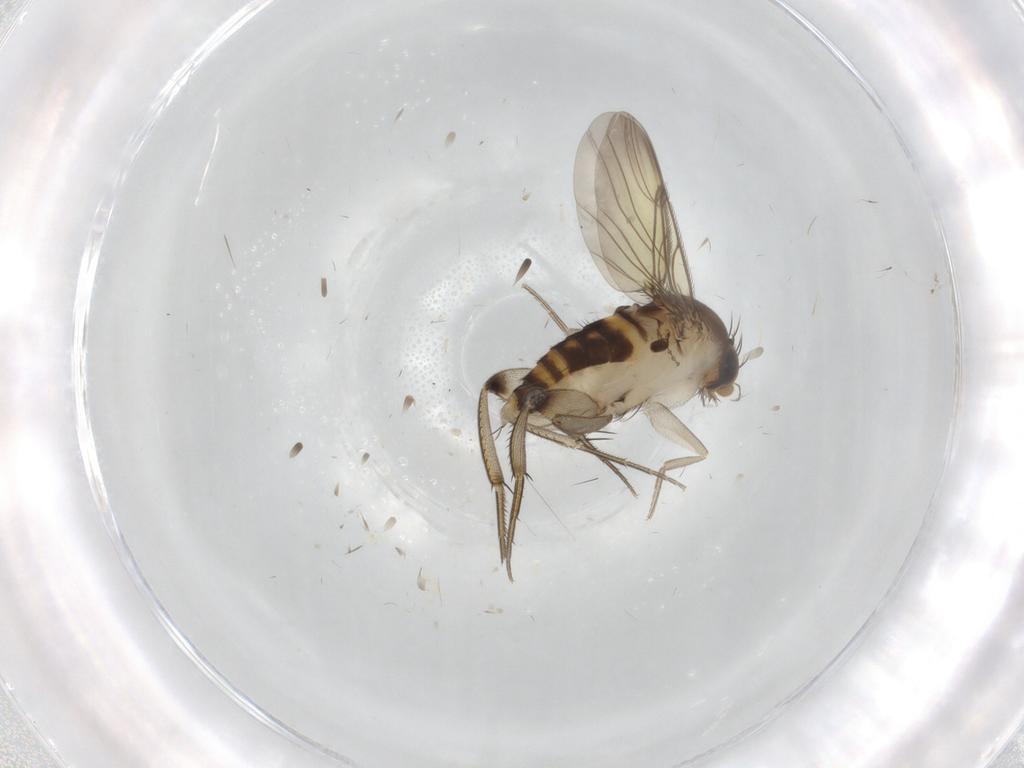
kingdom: Animalia
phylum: Arthropoda
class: Insecta
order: Diptera
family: Phoridae
